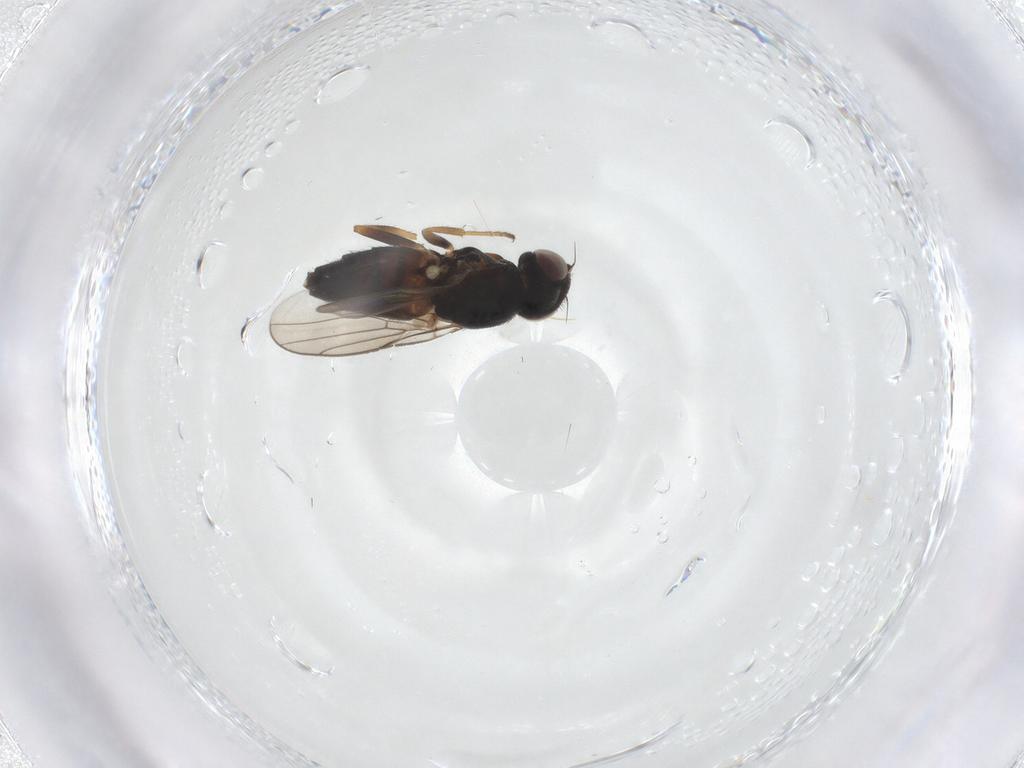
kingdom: Animalia
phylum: Arthropoda
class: Insecta
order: Diptera
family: Chloropidae
